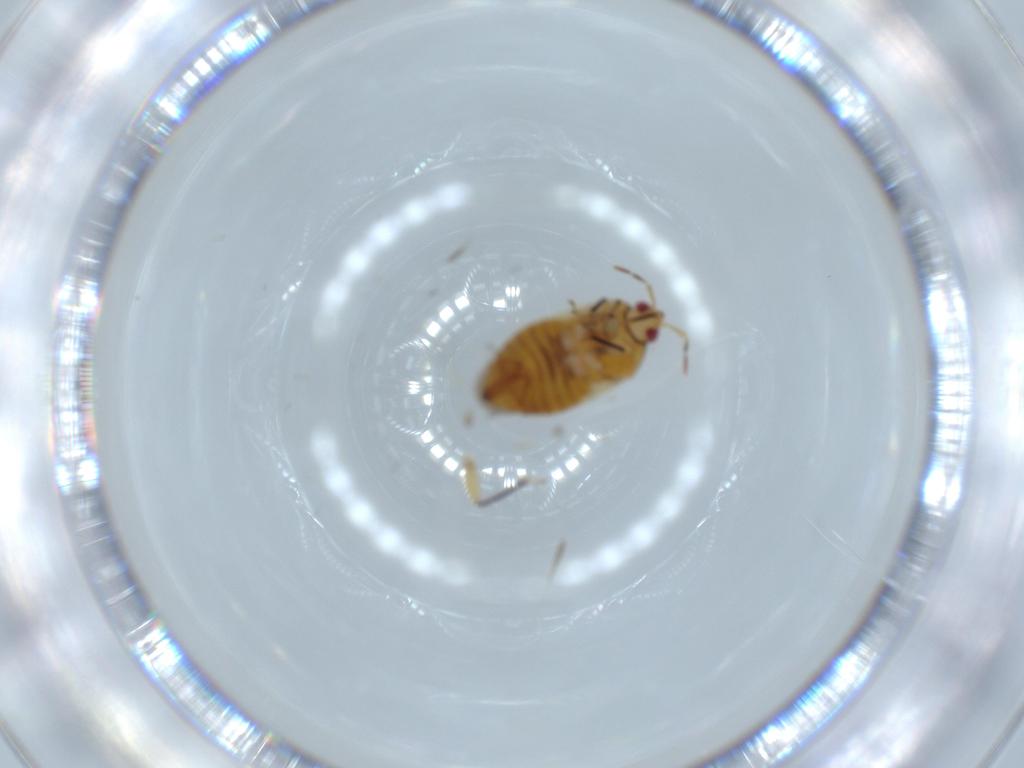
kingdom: Animalia
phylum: Arthropoda
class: Insecta
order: Hemiptera
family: Anthocoridae
